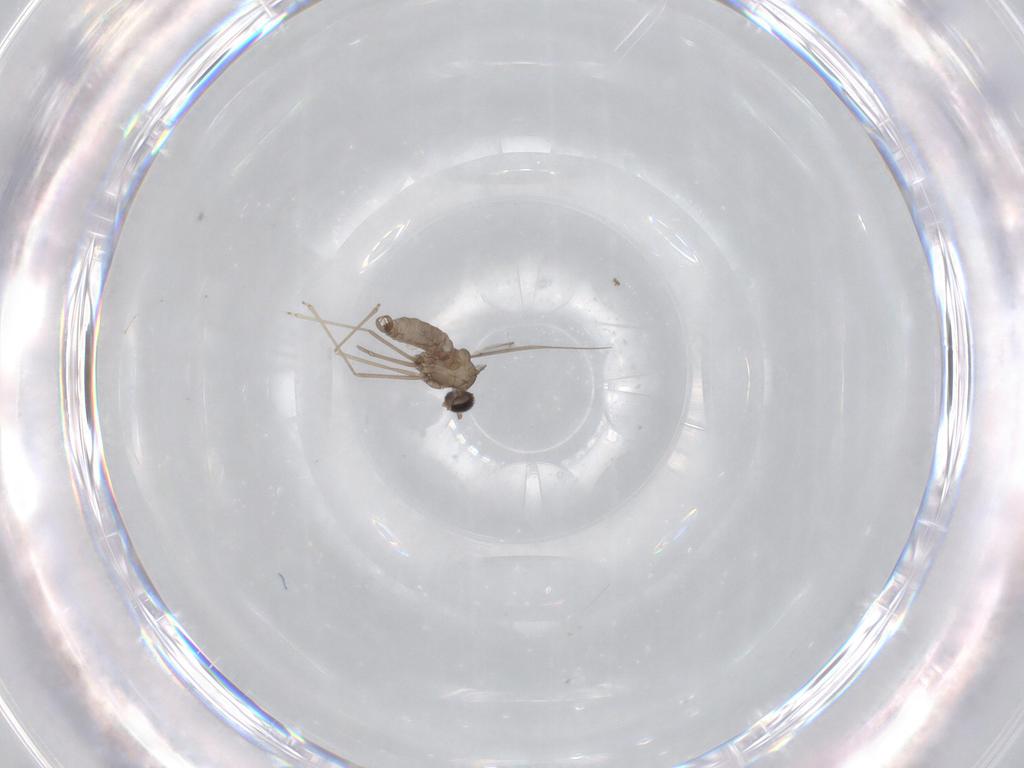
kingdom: Animalia
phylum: Arthropoda
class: Insecta
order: Diptera
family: Cecidomyiidae
